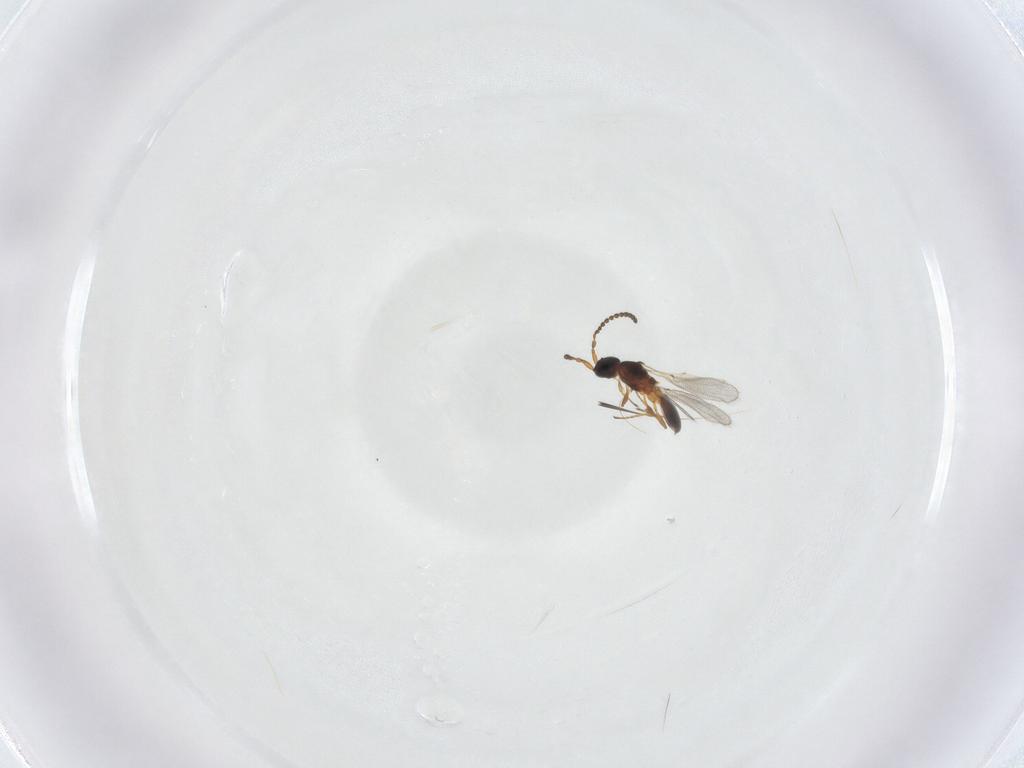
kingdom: Animalia
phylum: Arthropoda
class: Insecta
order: Hymenoptera
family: Diapriidae
